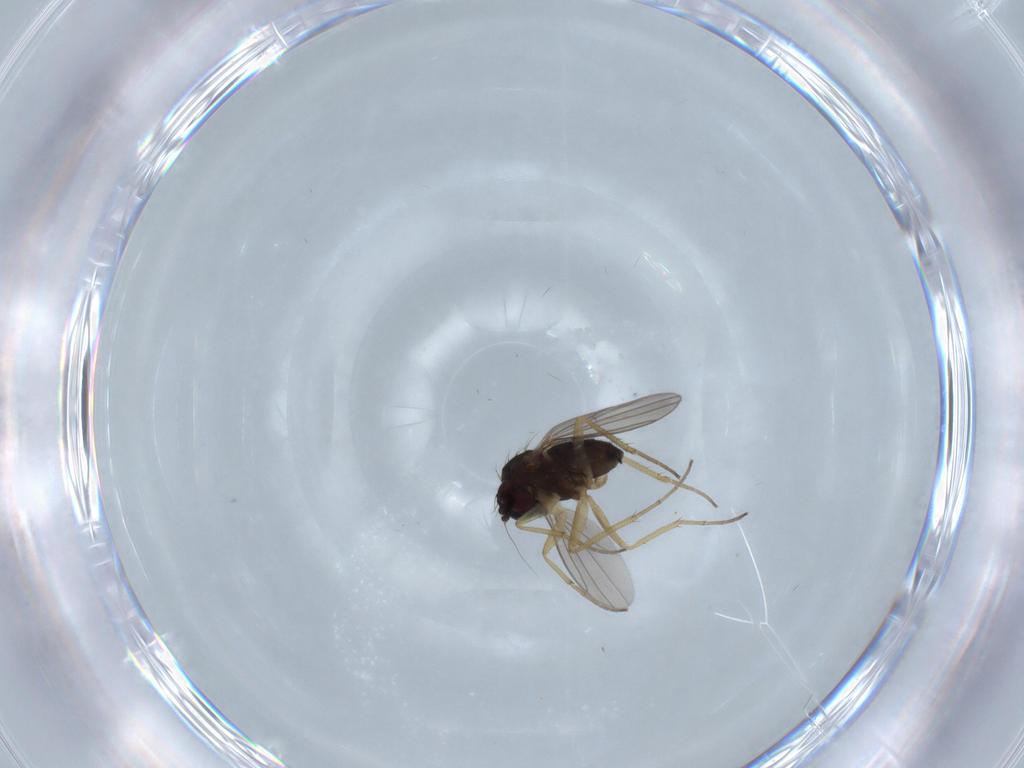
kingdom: Animalia
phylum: Arthropoda
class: Insecta
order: Diptera
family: Dolichopodidae
